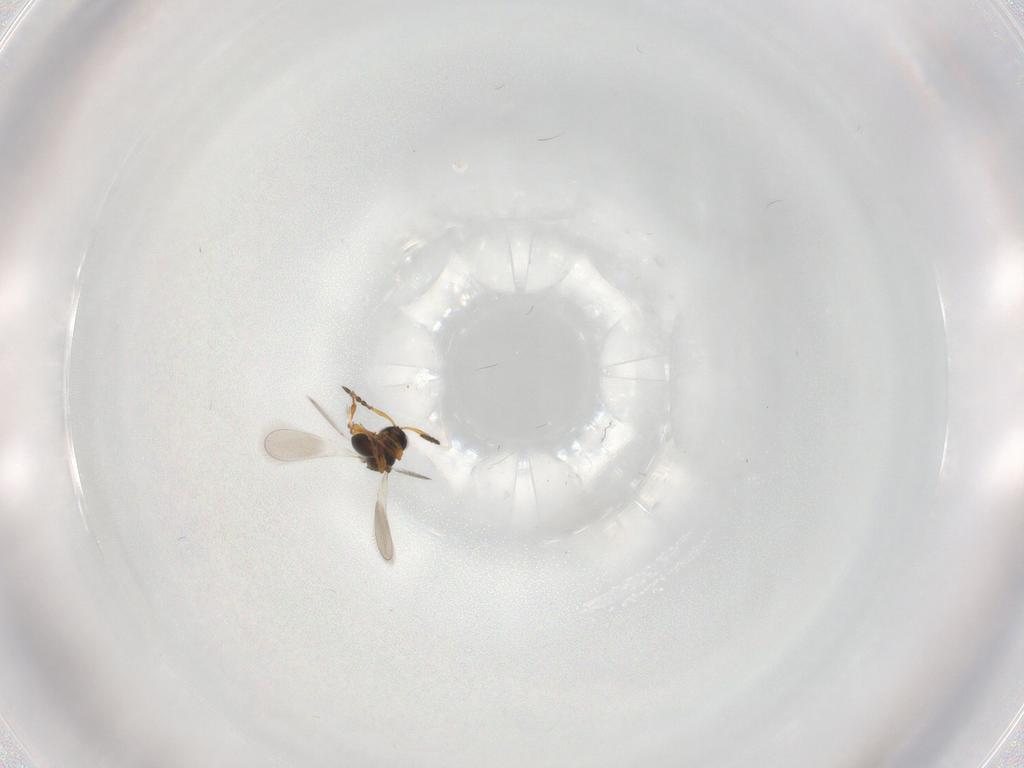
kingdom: Animalia
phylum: Arthropoda
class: Insecta
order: Hymenoptera
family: Platygastridae
